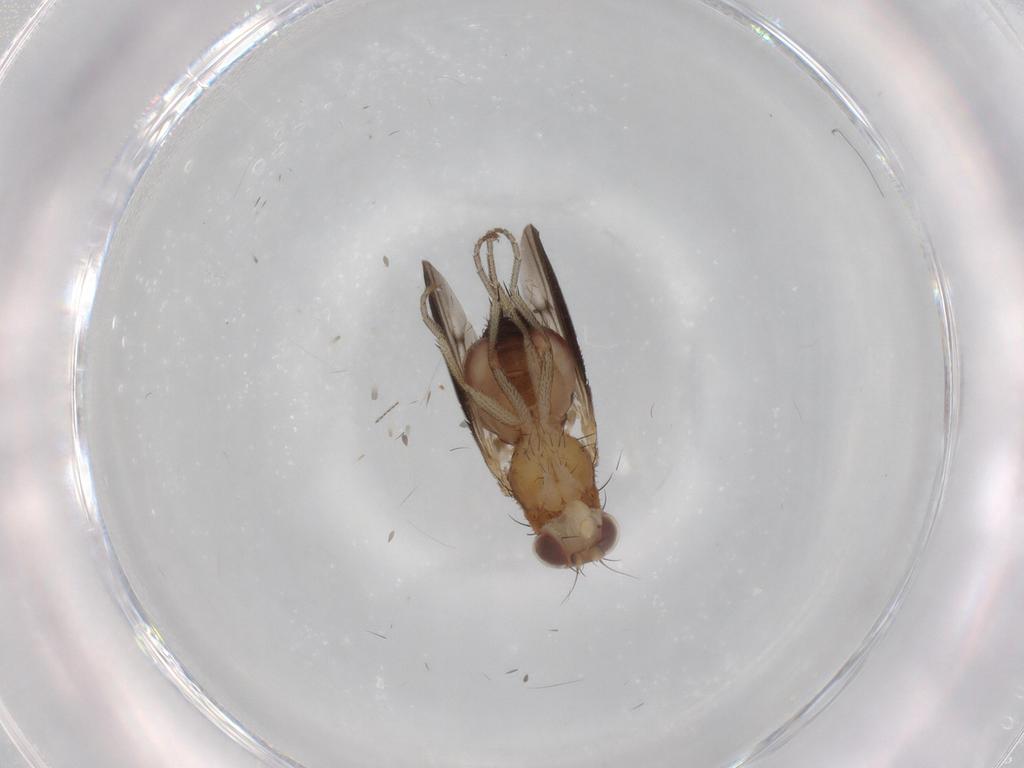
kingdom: Animalia
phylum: Arthropoda
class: Insecta
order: Diptera
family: Heleomyzidae
